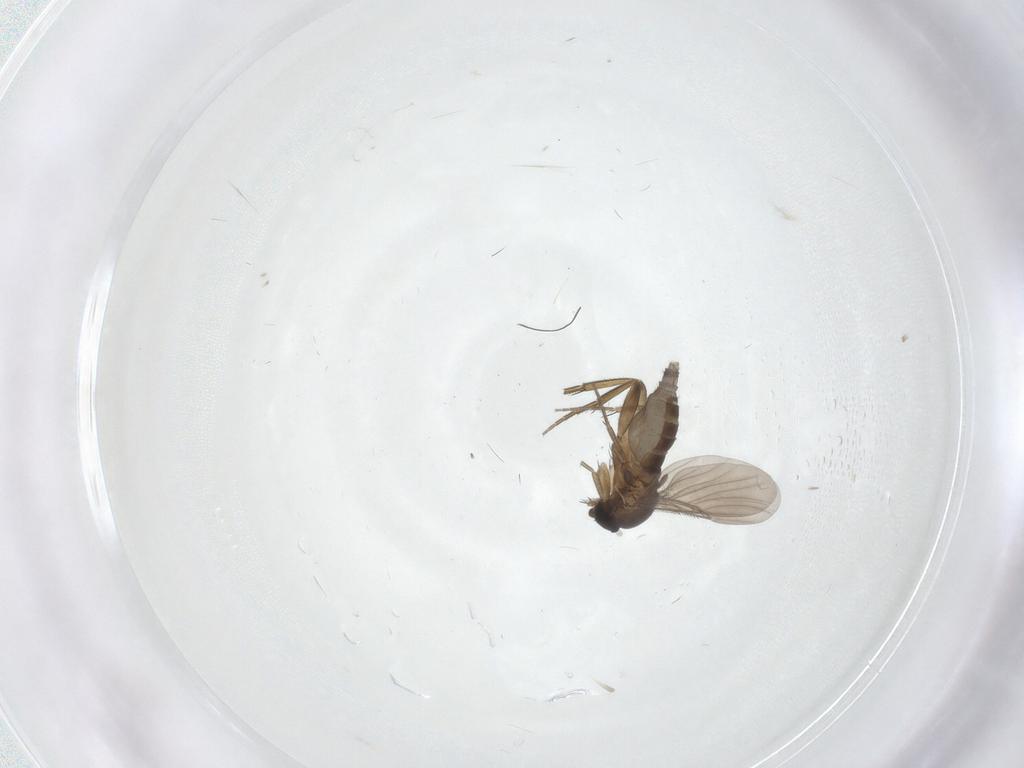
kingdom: Animalia
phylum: Arthropoda
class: Insecta
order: Diptera
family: Phoridae
